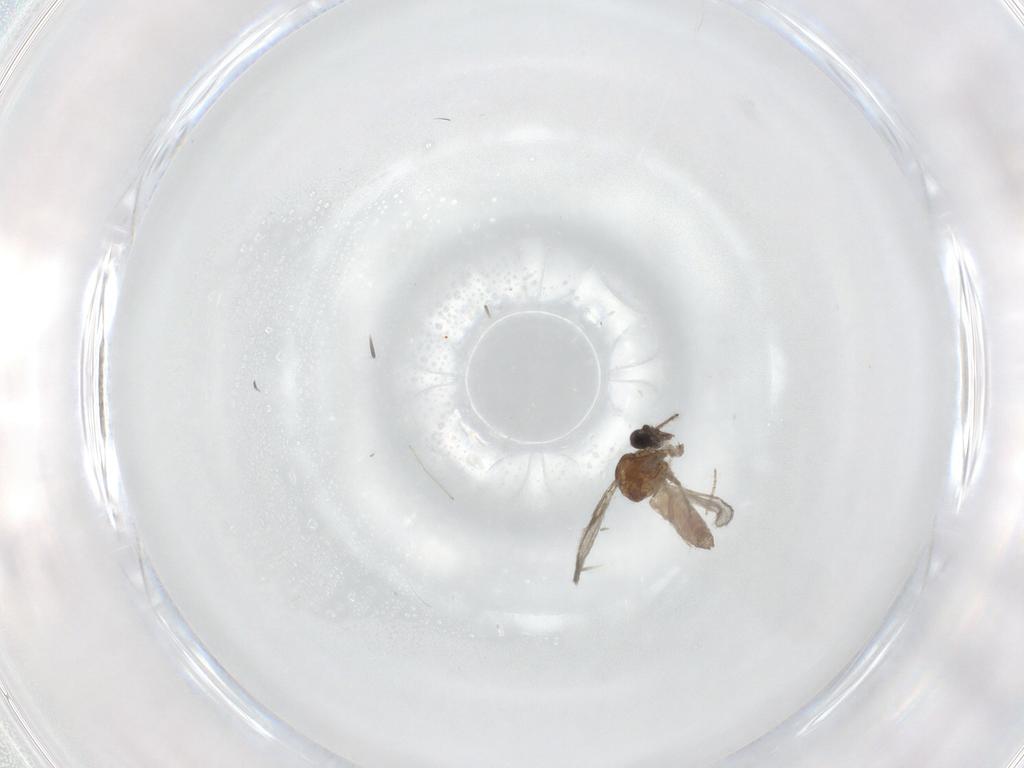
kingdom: Animalia
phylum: Arthropoda
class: Insecta
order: Diptera
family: Ceratopogonidae
